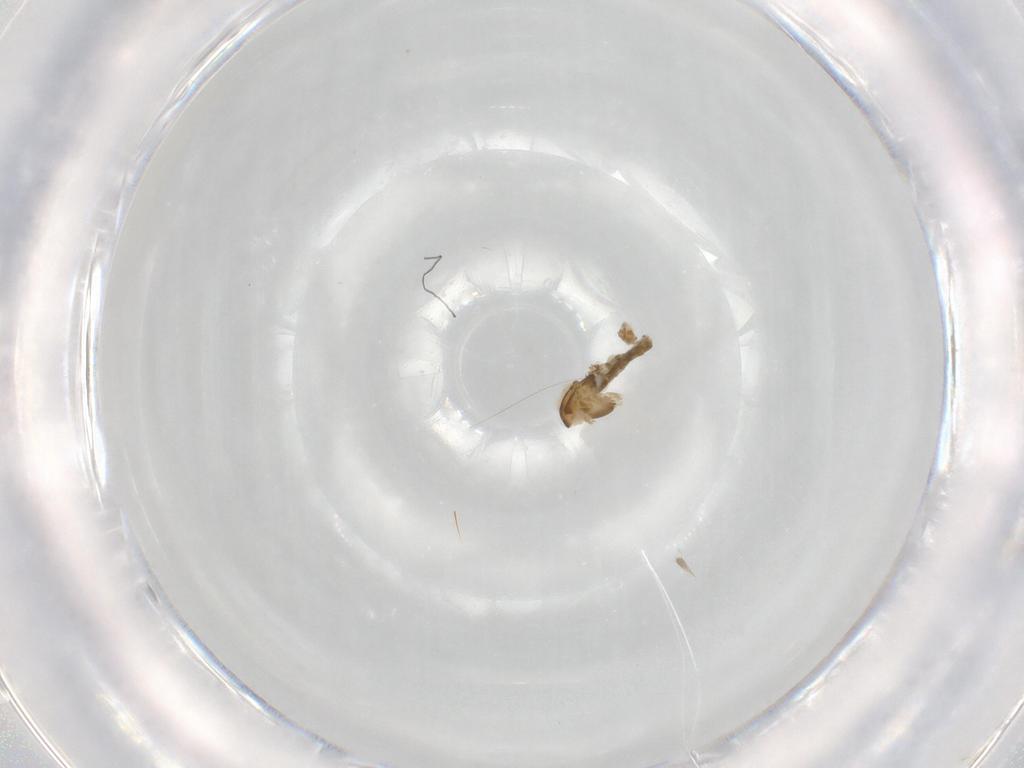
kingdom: Animalia
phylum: Arthropoda
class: Insecta
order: Diptera
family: Chironomidae
